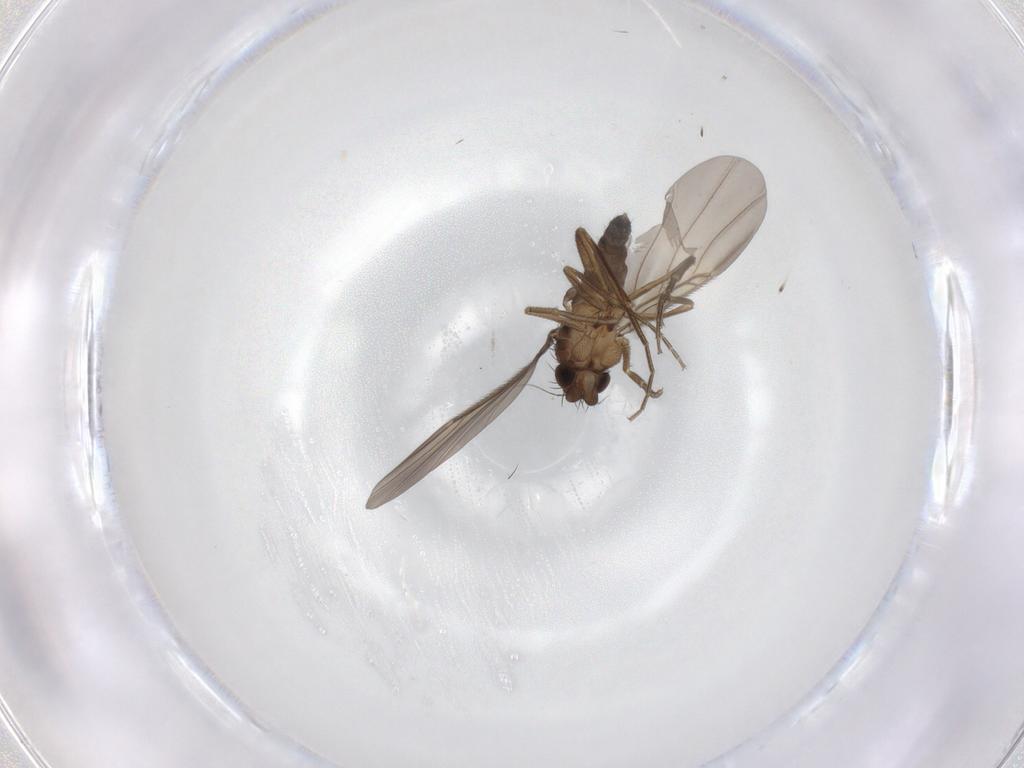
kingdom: Animalia
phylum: Arthropoda
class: Insecta
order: Diptera
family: Phoridae
